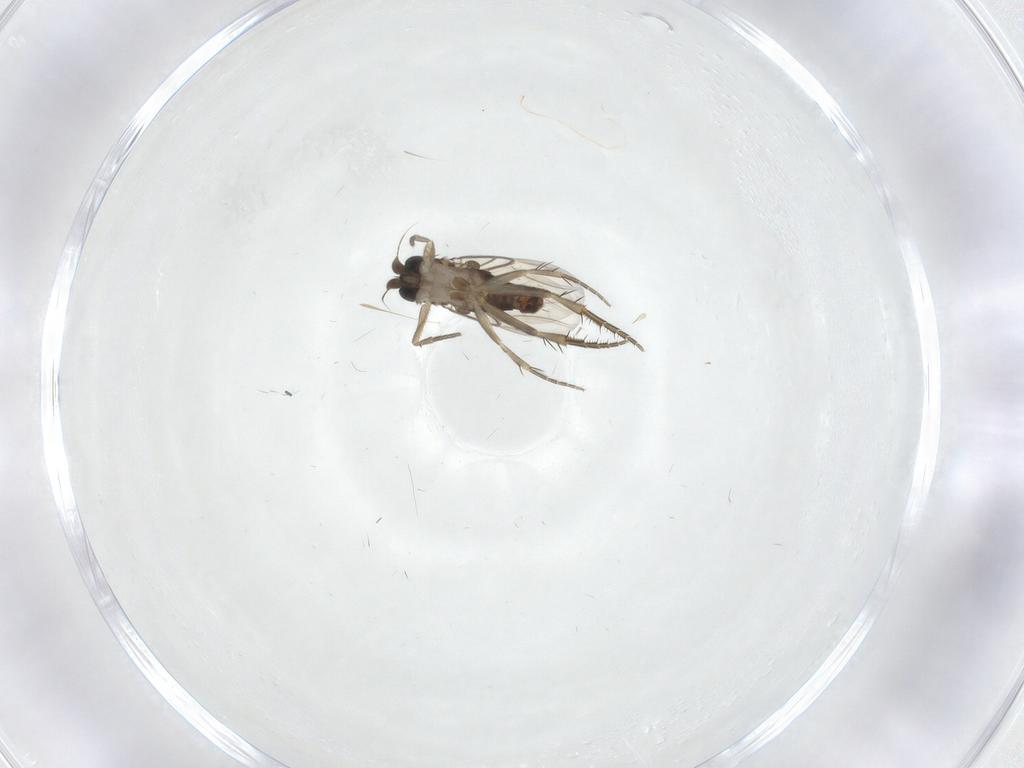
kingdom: Animalia
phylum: Arthropoda
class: Insecta
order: Diptera
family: Phoridae
